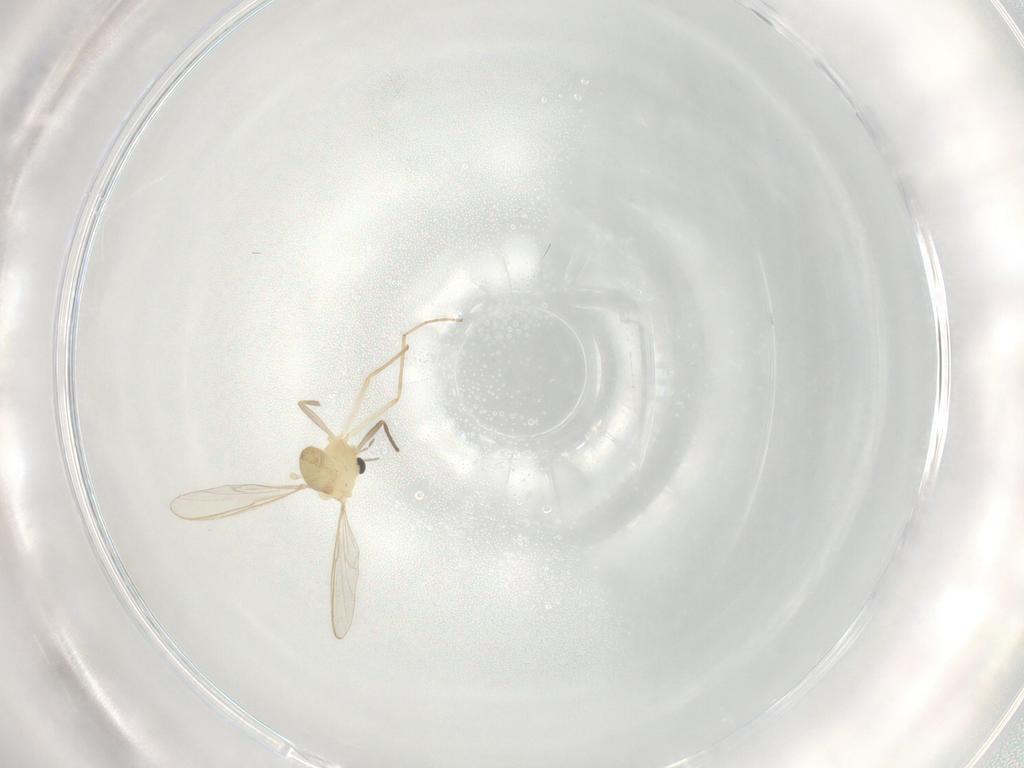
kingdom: Animalia
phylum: Arthropoda
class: Insecta
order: Diptera
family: Chironomidae
